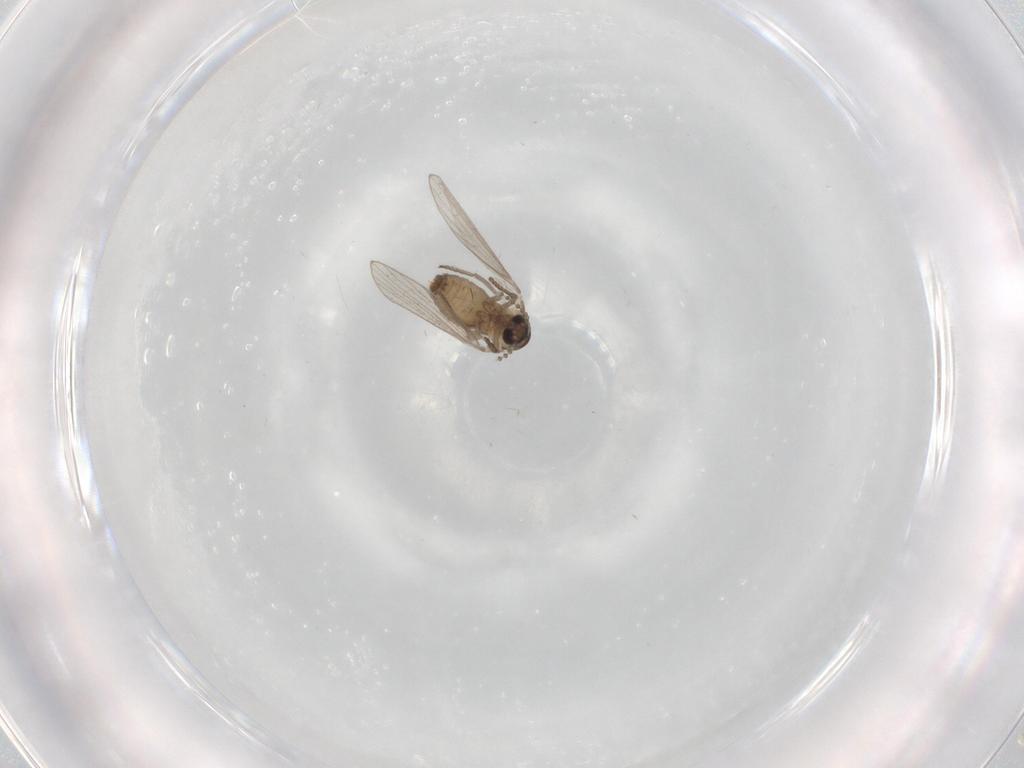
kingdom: Animalia
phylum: Arthropoda
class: Insecta
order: Diptera
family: Psychodidae
